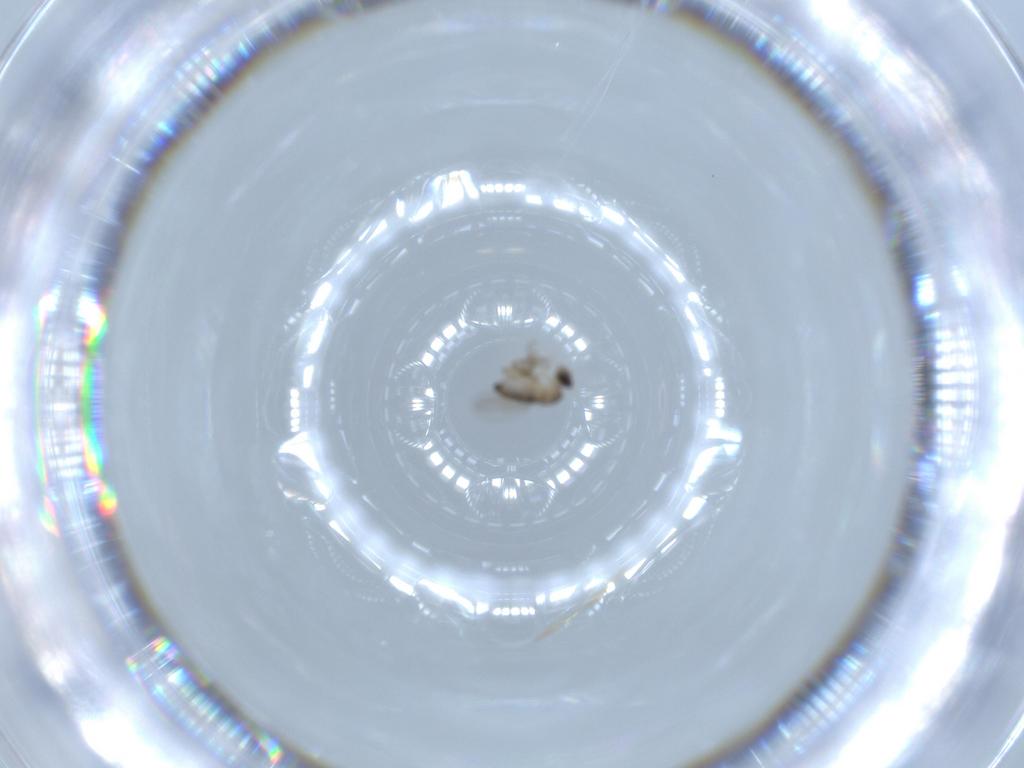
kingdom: Animalia
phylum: Arthropoda
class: Insecta
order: Diptera
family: Phoridae
